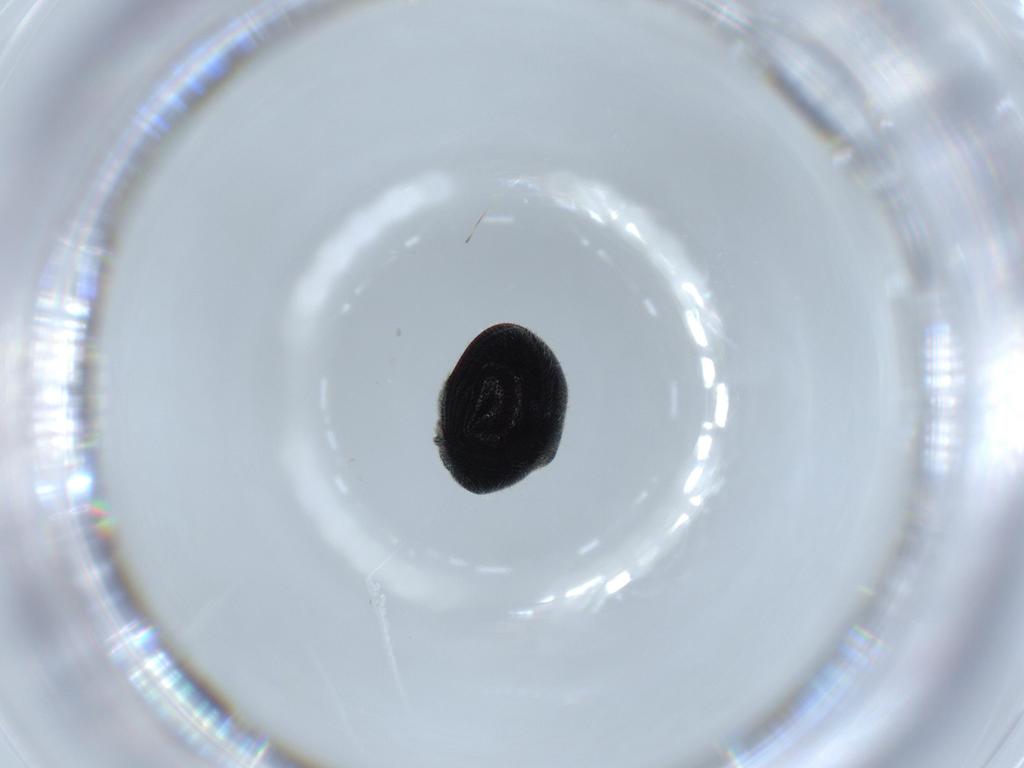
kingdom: Animalia
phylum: Arthropoda
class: Insecta
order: Coleoptera
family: Ptinidae
